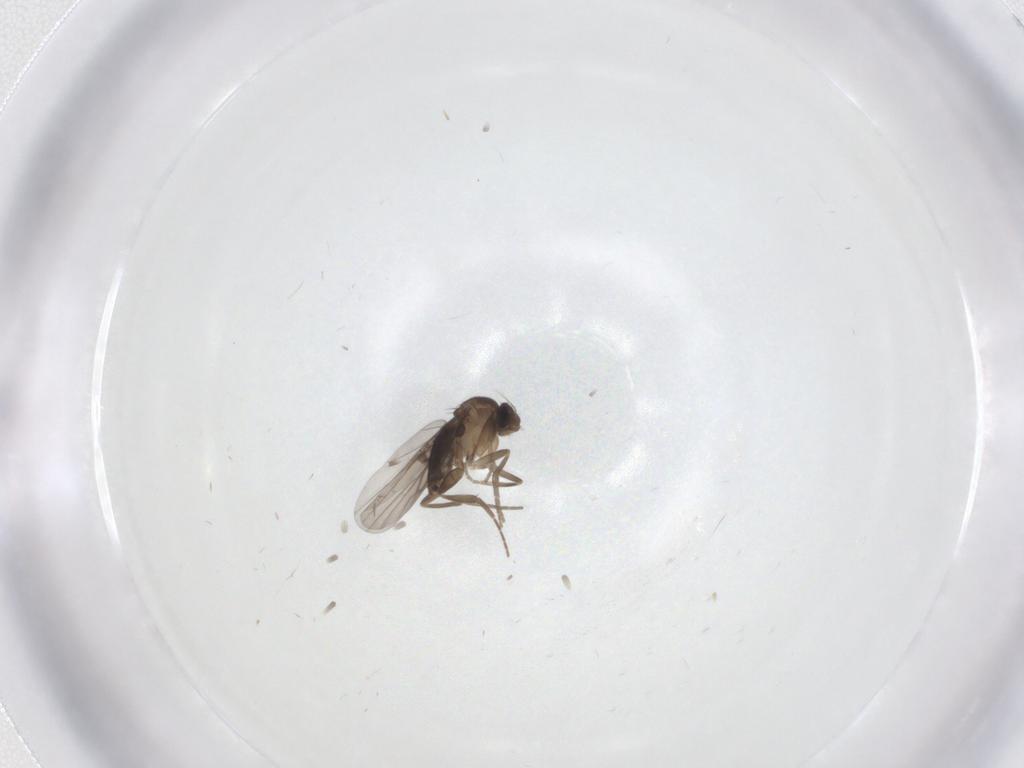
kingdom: Animalia
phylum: Arthropoda
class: Insecta
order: Diptera
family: Phoridae
